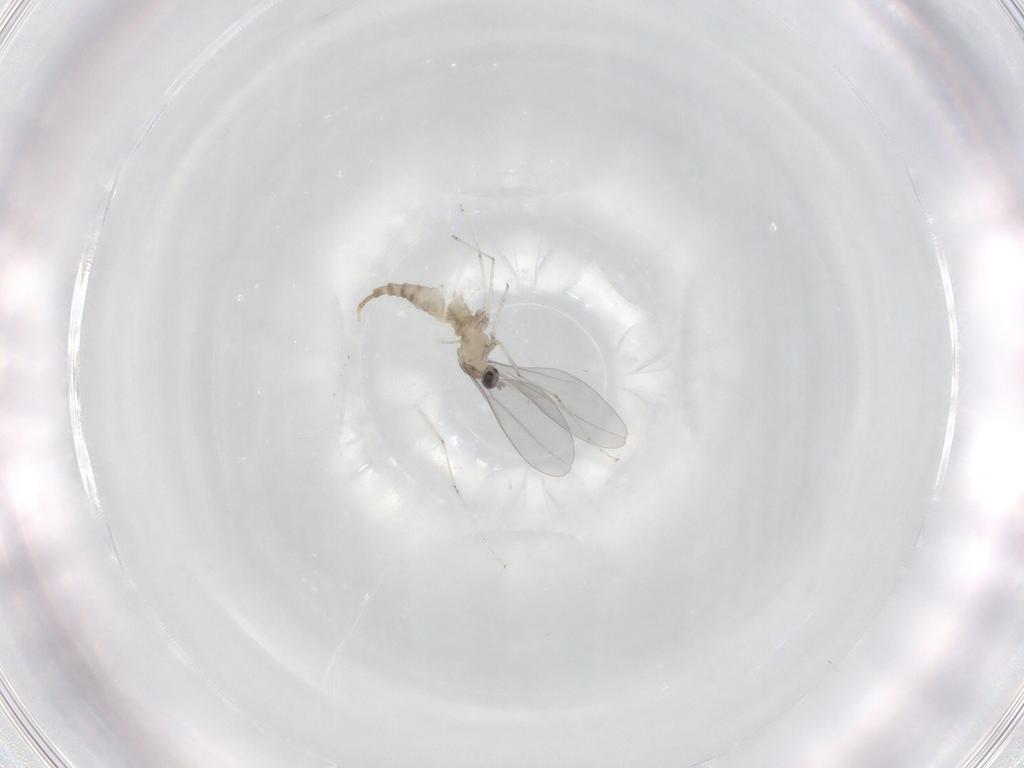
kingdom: Animalia
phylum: Arthropoda
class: Insecta
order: Diptera
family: Cecidomyiidae
